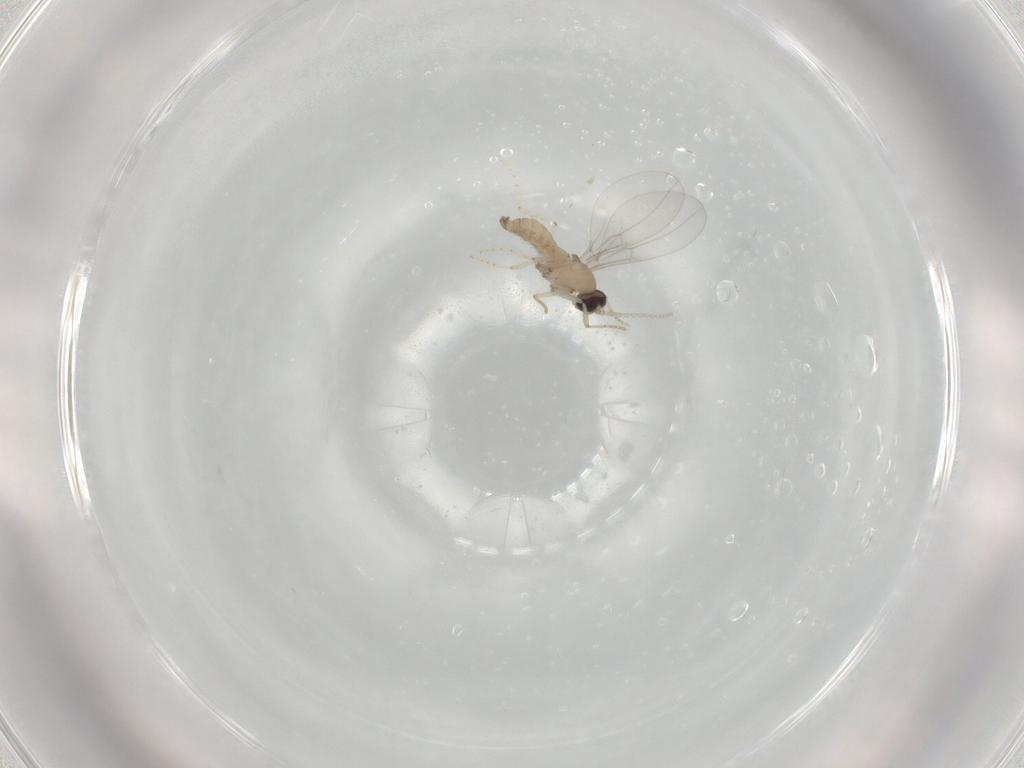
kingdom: Animalia
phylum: Arthropoda
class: Insecta
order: Diptera
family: Cecidomyiidae
